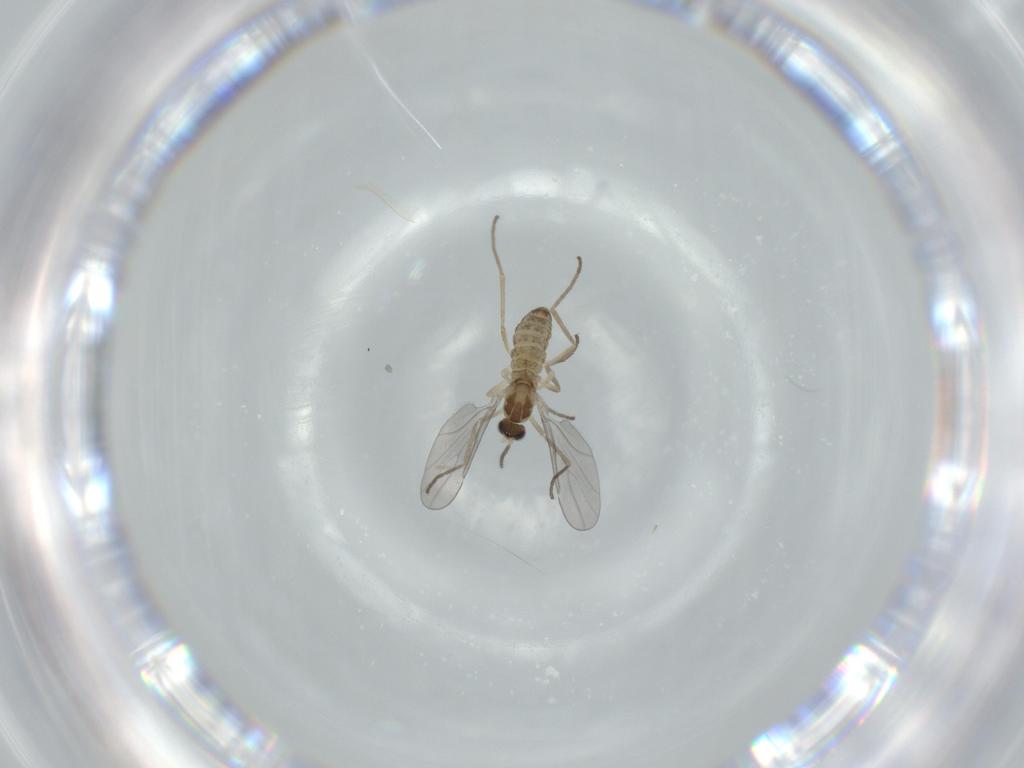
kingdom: Animalia
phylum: Arthropoda
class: Insecta
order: Diptera
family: Cecidomyiidae
